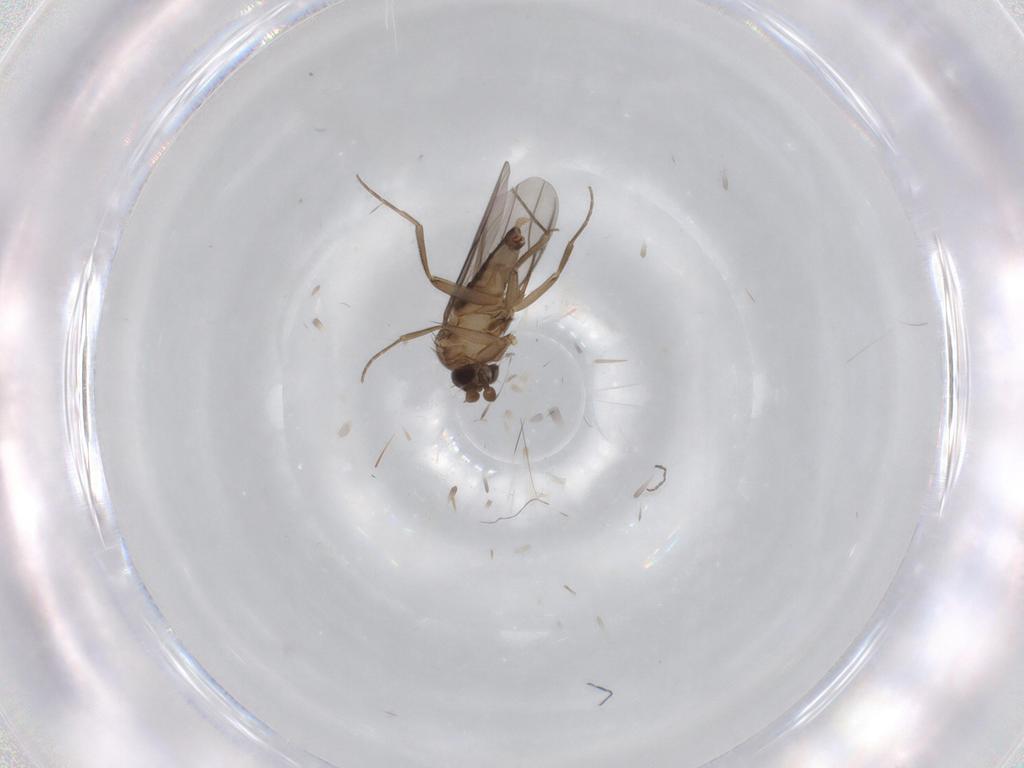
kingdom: Animalia
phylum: Arthropoda
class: Insecta
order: Diptera
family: Phoridae
